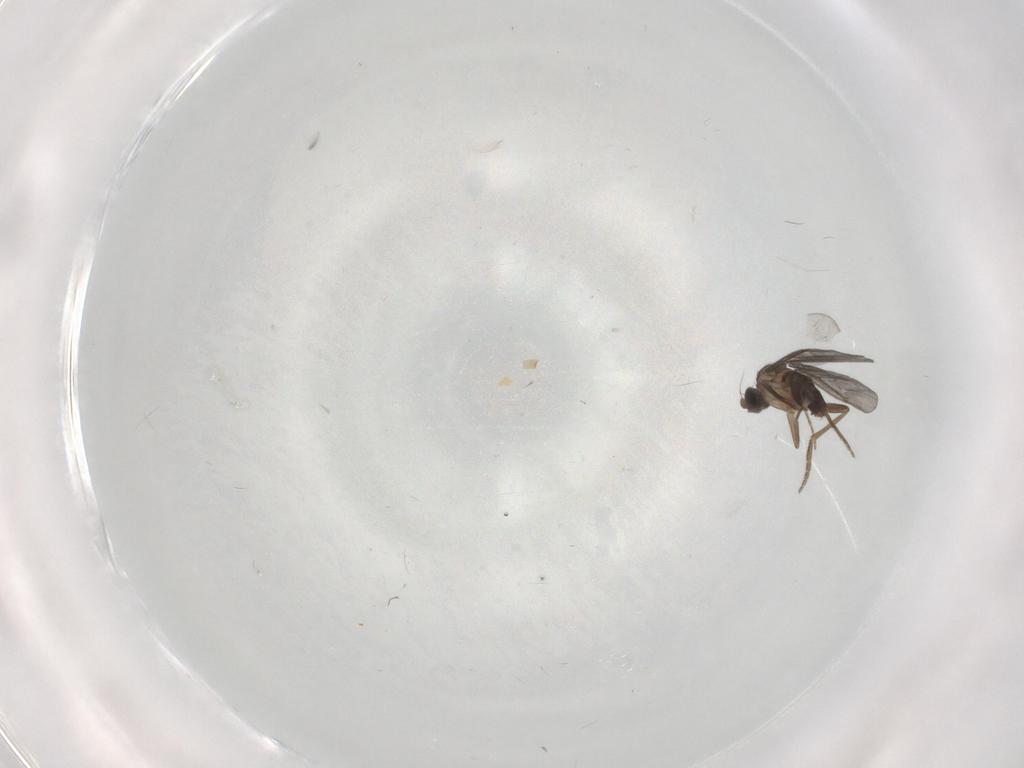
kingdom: Animalia
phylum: Arthropoda
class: Insecta
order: Diptera
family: Phoridae
